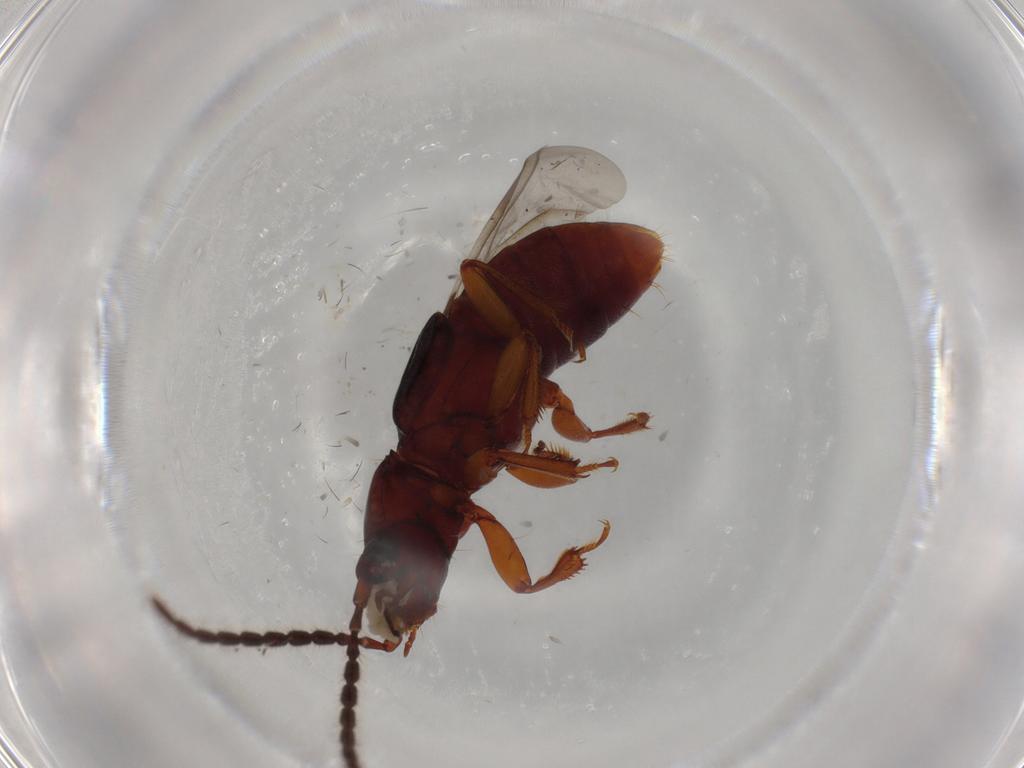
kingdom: Animalia
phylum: Arthropoda
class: Insecta
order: Coleoptera
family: Staphylinidae
